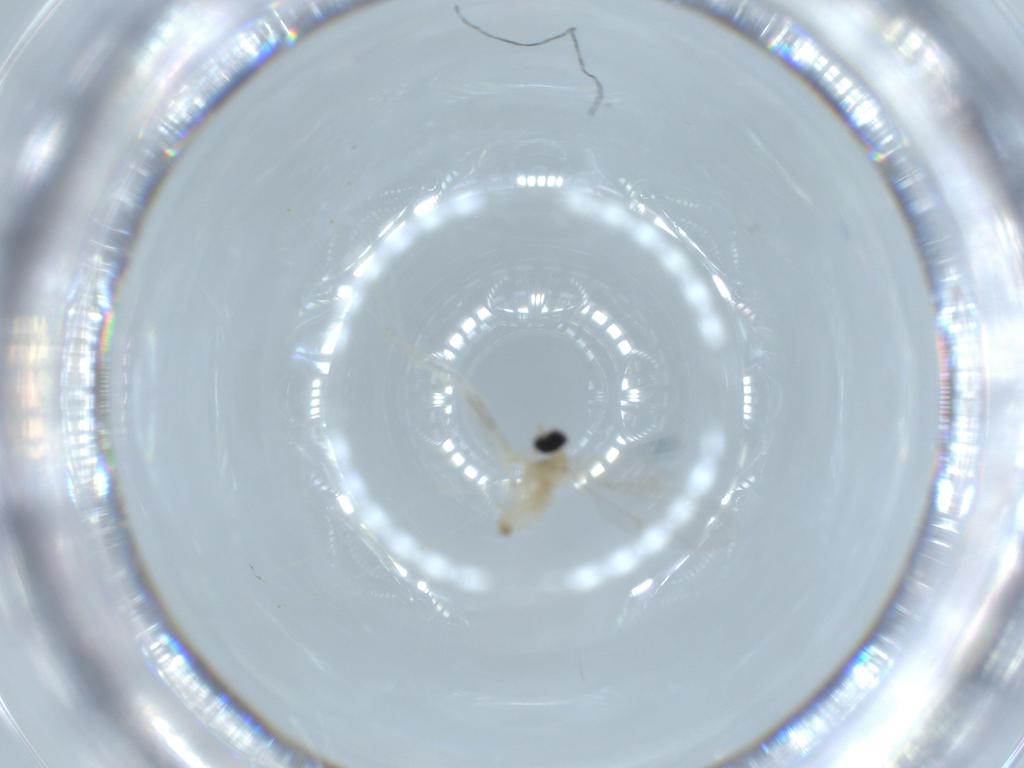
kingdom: Animalia
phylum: Arthropoda
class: Insecta
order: Diptera
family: Cecidomyiidae
